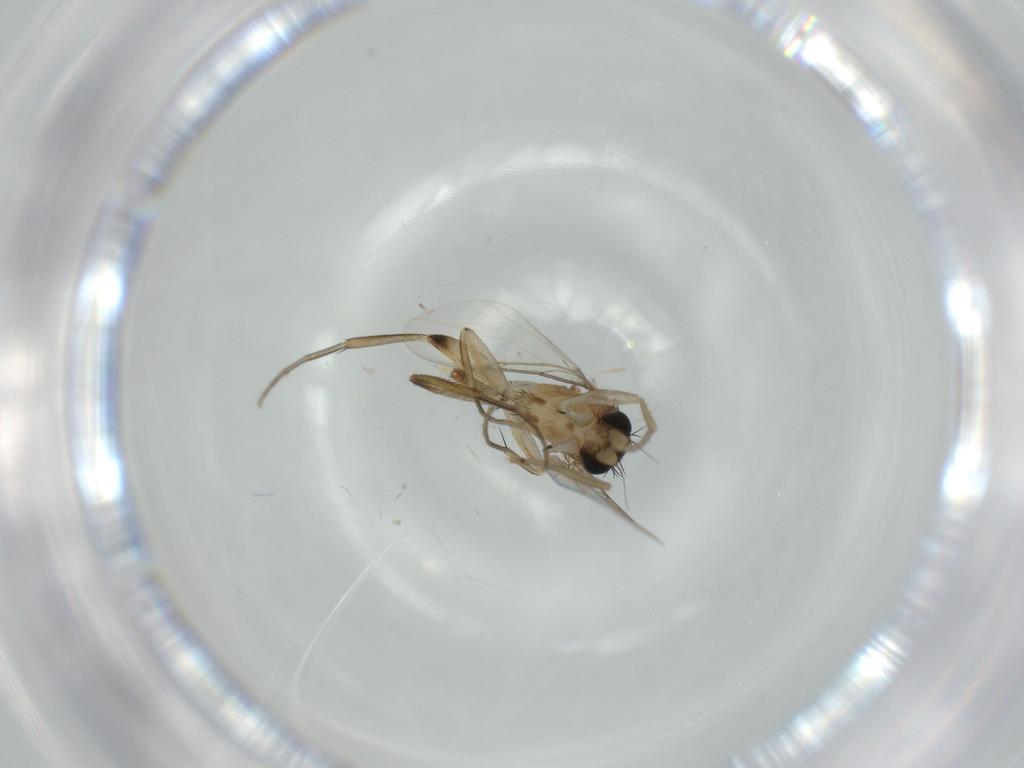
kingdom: Animalia
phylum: Arthropoda
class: Insecta
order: Diptera
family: Phoridae
